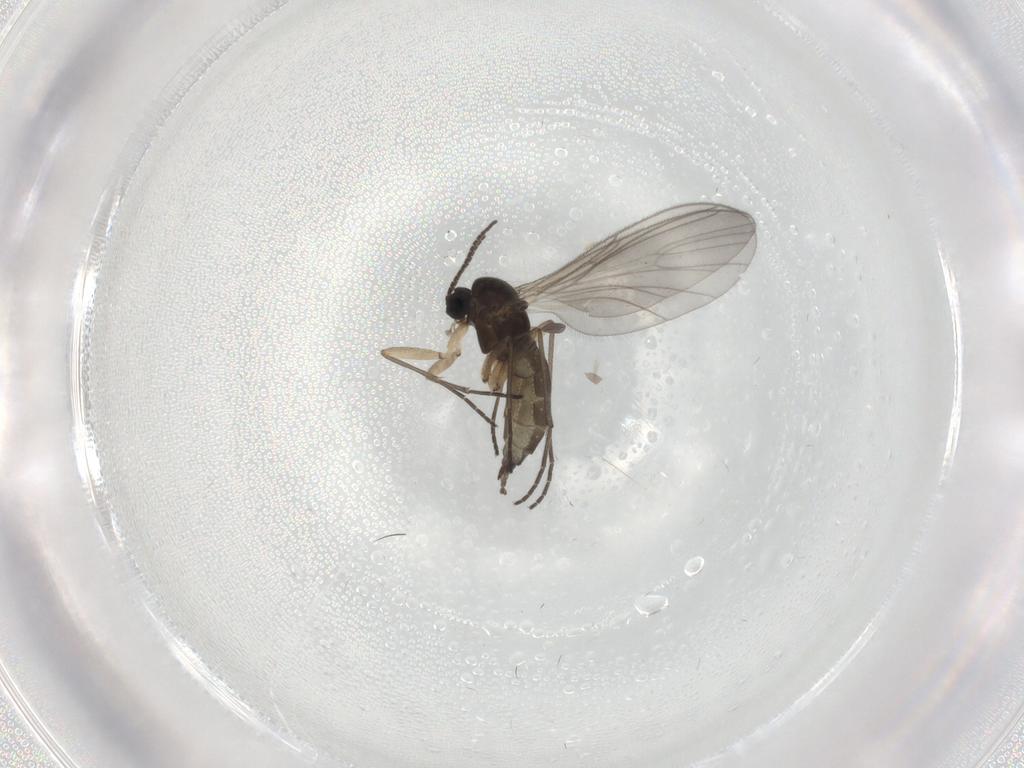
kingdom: Animalia
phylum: Arthropoda
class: Insecta
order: Diptera
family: Sciaridae
